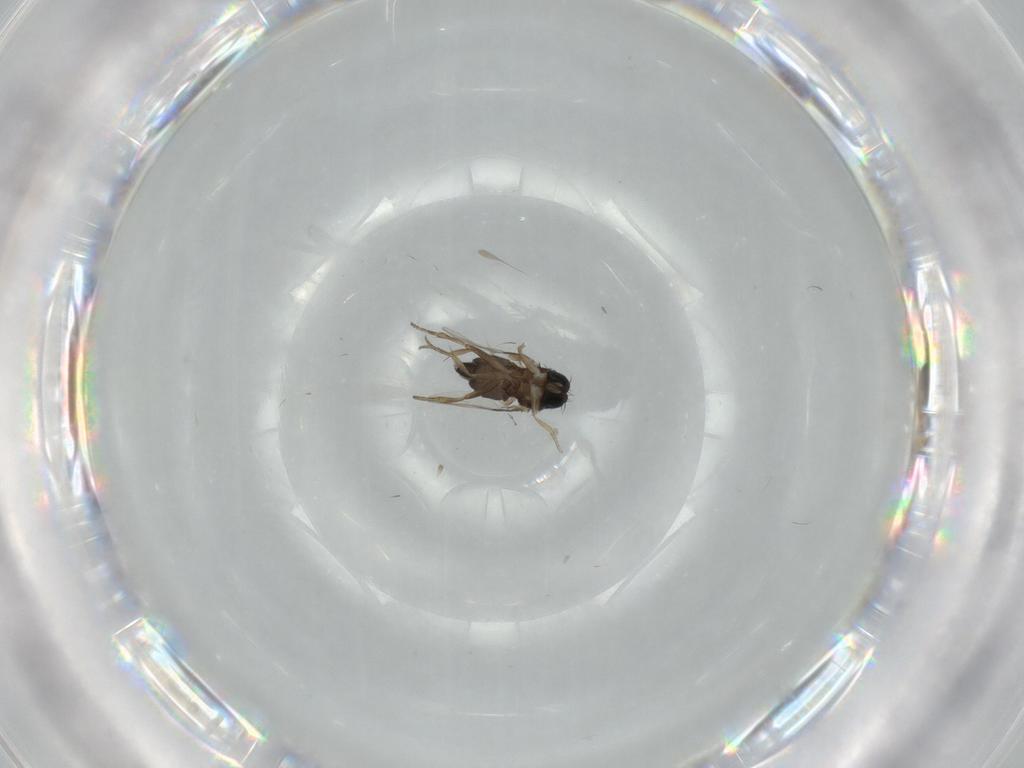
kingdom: Animalia
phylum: Arthropoda
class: Insecta
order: Diptera
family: Phoridae
